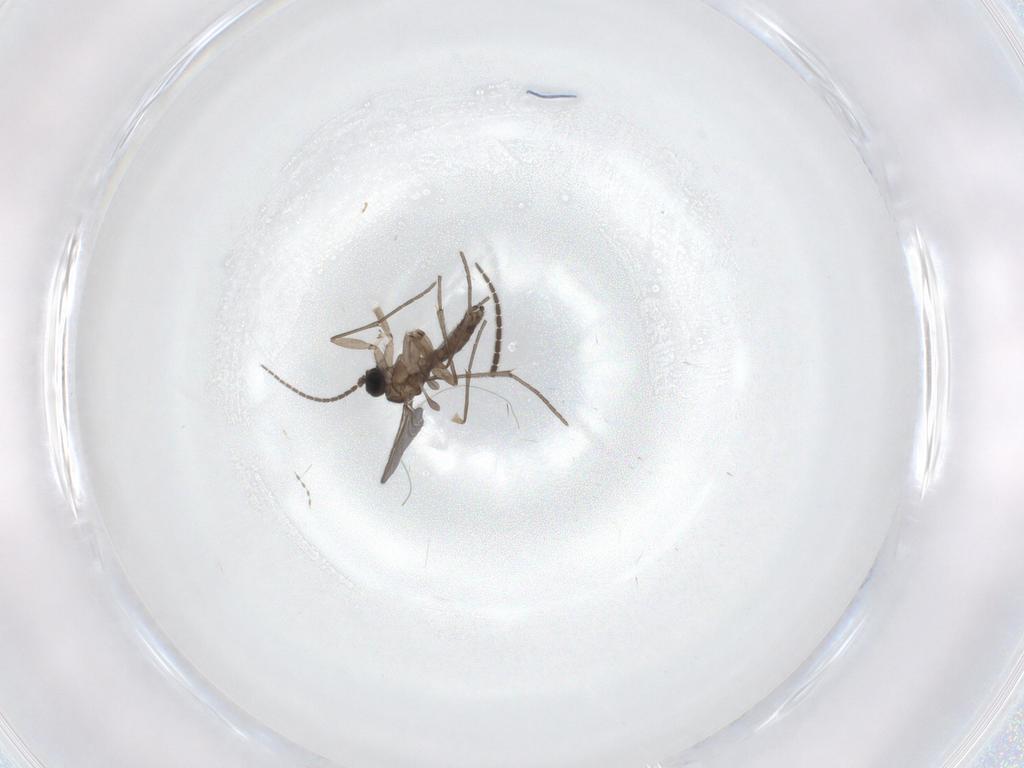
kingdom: Animalia
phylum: Arthropoda
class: Insecta
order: Diptera
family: Sciaridae
